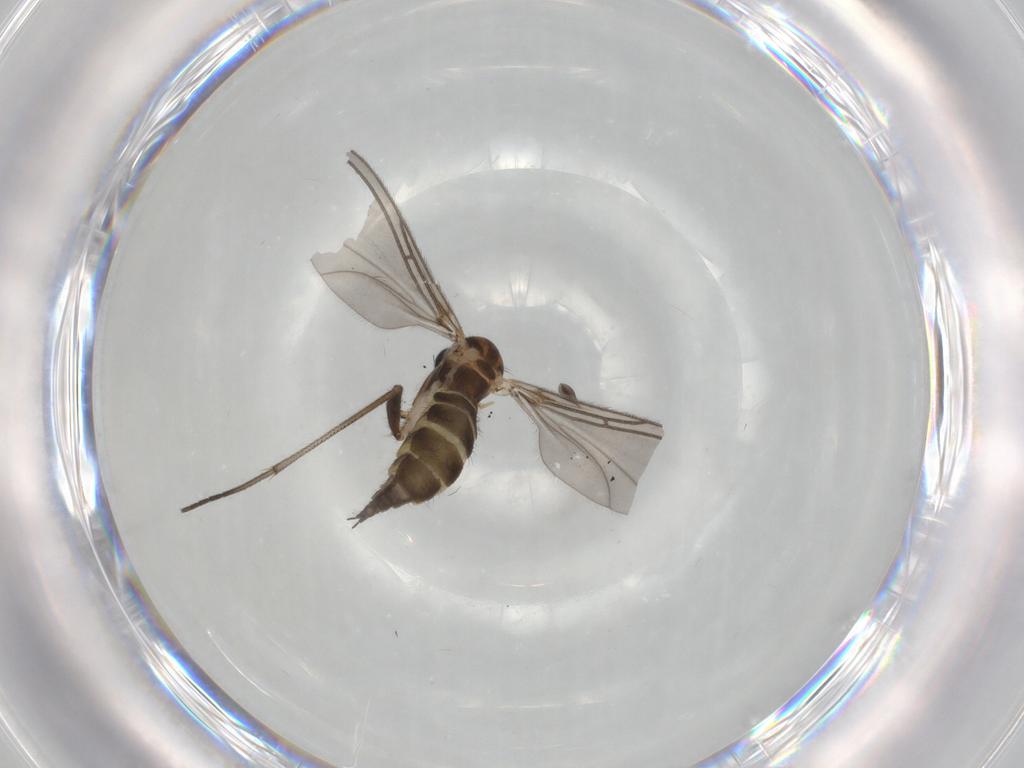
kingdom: Animalia
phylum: Arthropoda
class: Insecta
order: Diptera
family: Sciaridae
